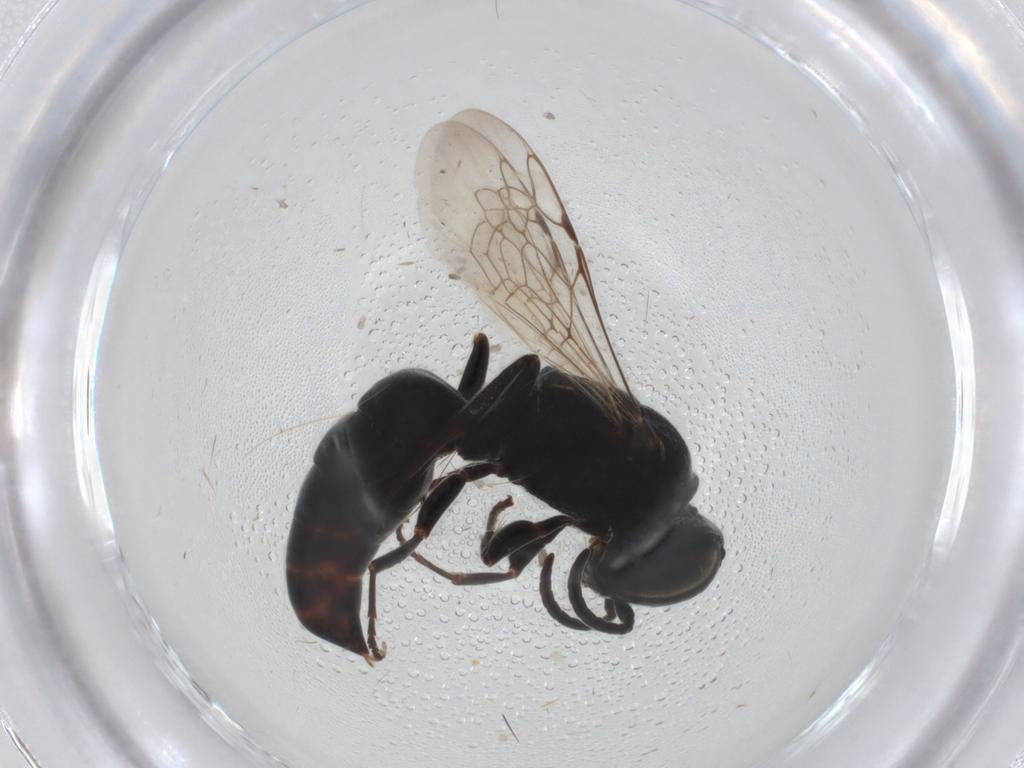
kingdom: Animalia
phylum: Arthropoda
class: Insecta
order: Hymenoptera
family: Crabronidae
